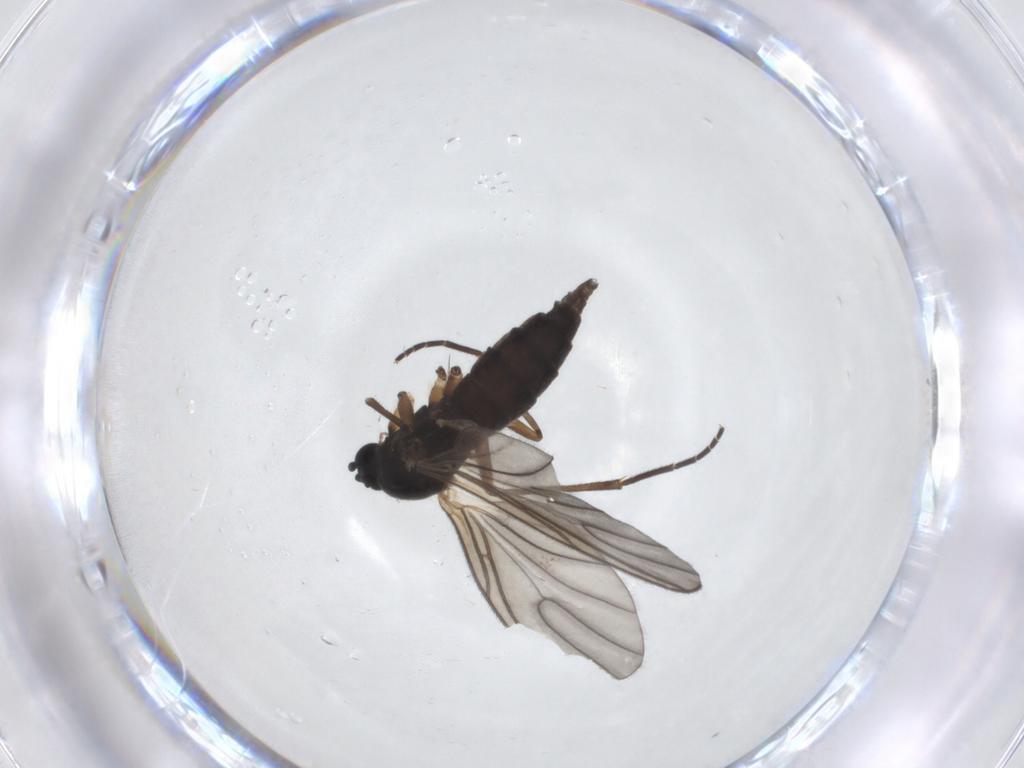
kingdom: Animalia
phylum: Arthropoda
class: Insecta
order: Diptera
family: Sciaridae
